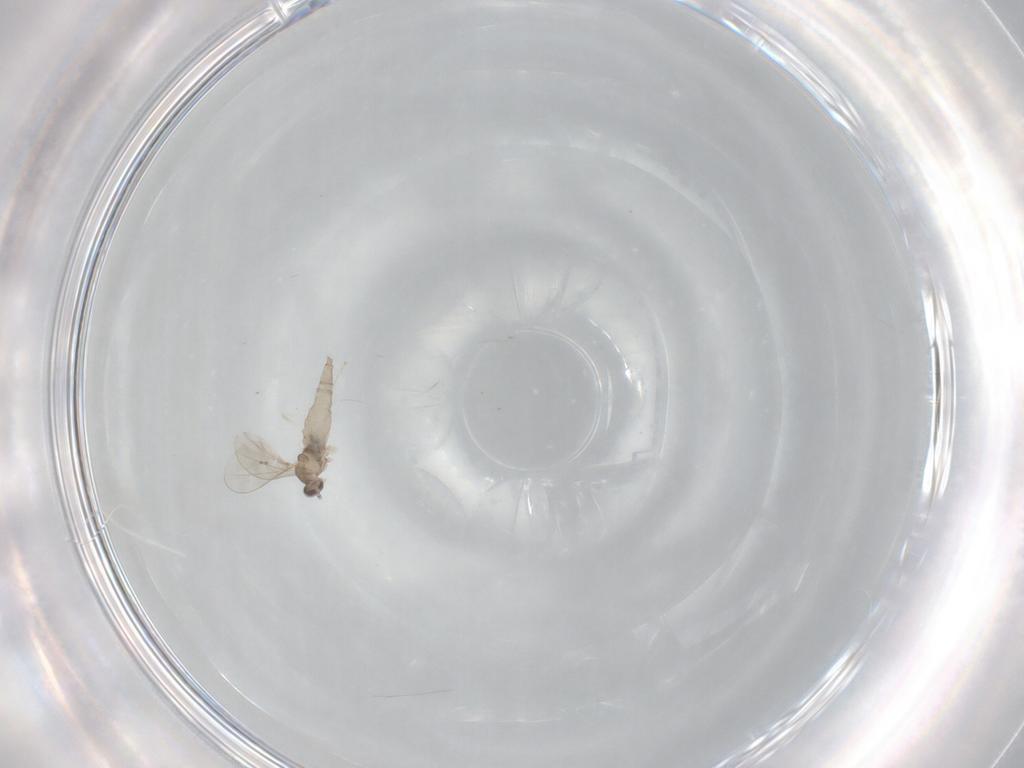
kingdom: Animalia
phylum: Arthropoda
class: Insecta
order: Diptera
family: Cecidomyiidae
